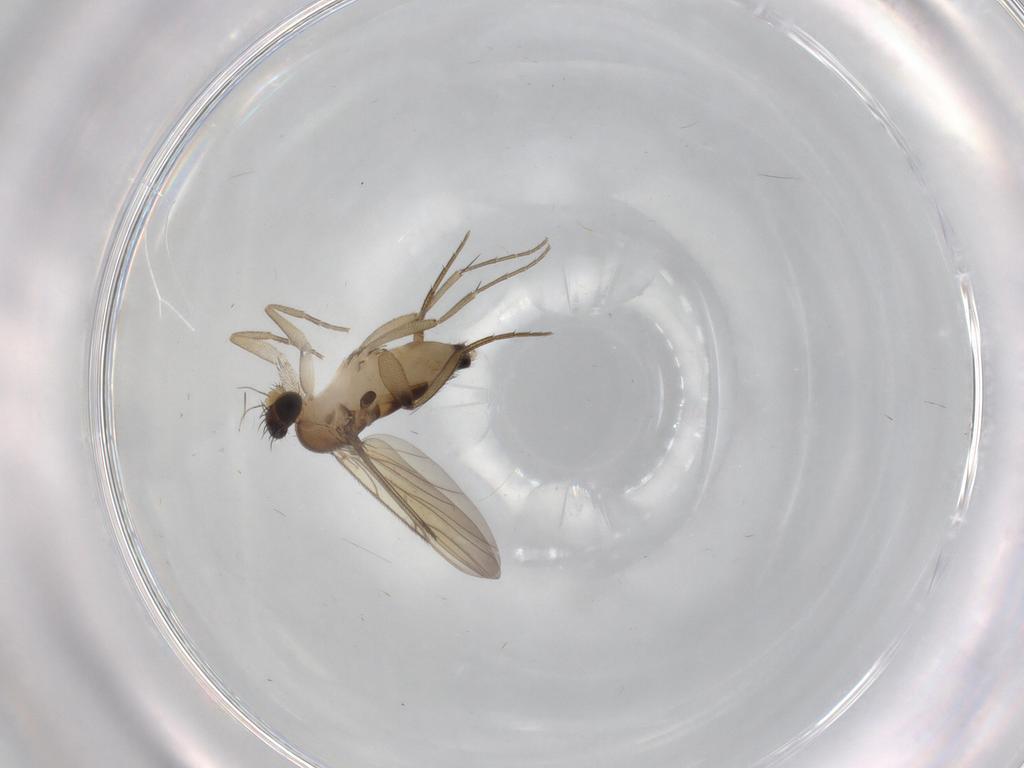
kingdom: Animalia
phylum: Arthropoda
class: Insecta
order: Diptera
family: Phoridae
